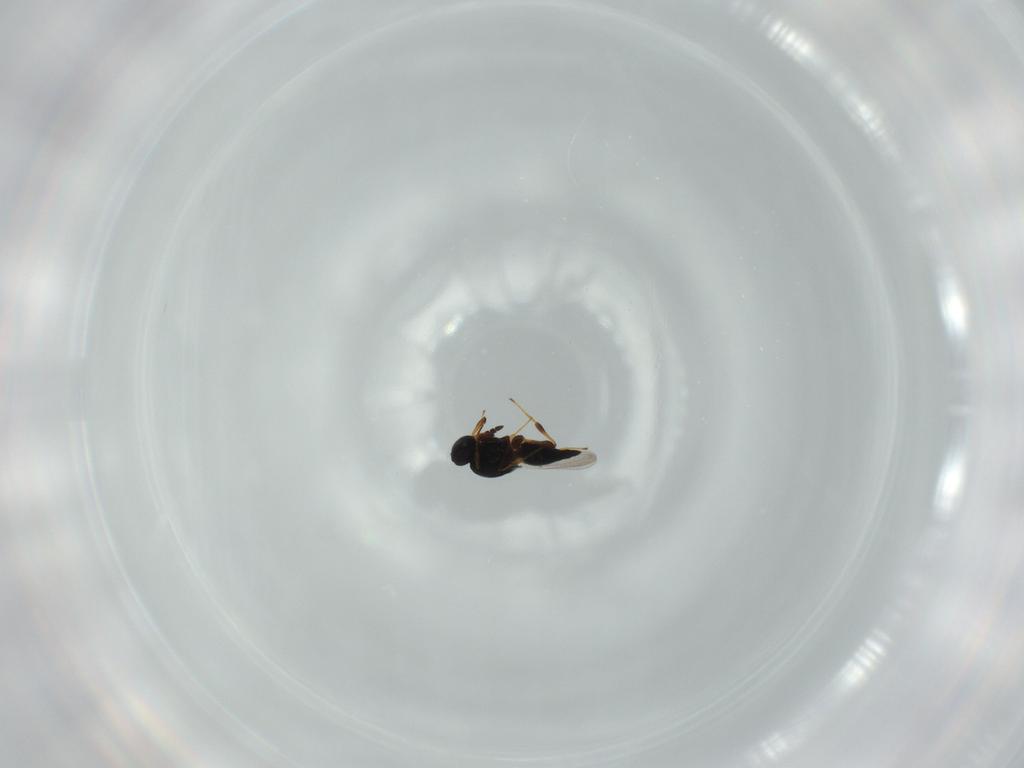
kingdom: Animalia
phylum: Arthropoda
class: Insecta
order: Hymenoptera
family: Platygastridae
